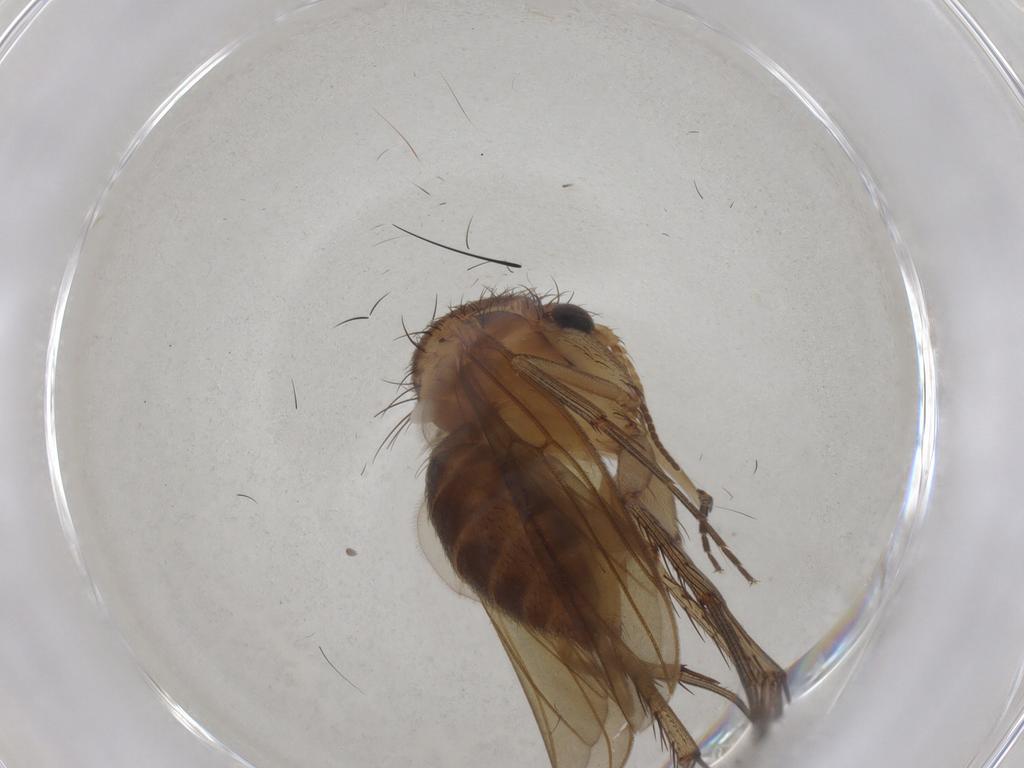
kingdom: Animalia
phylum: Arthropoda
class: Insecta
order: Diptera
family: Mycetophilidae
